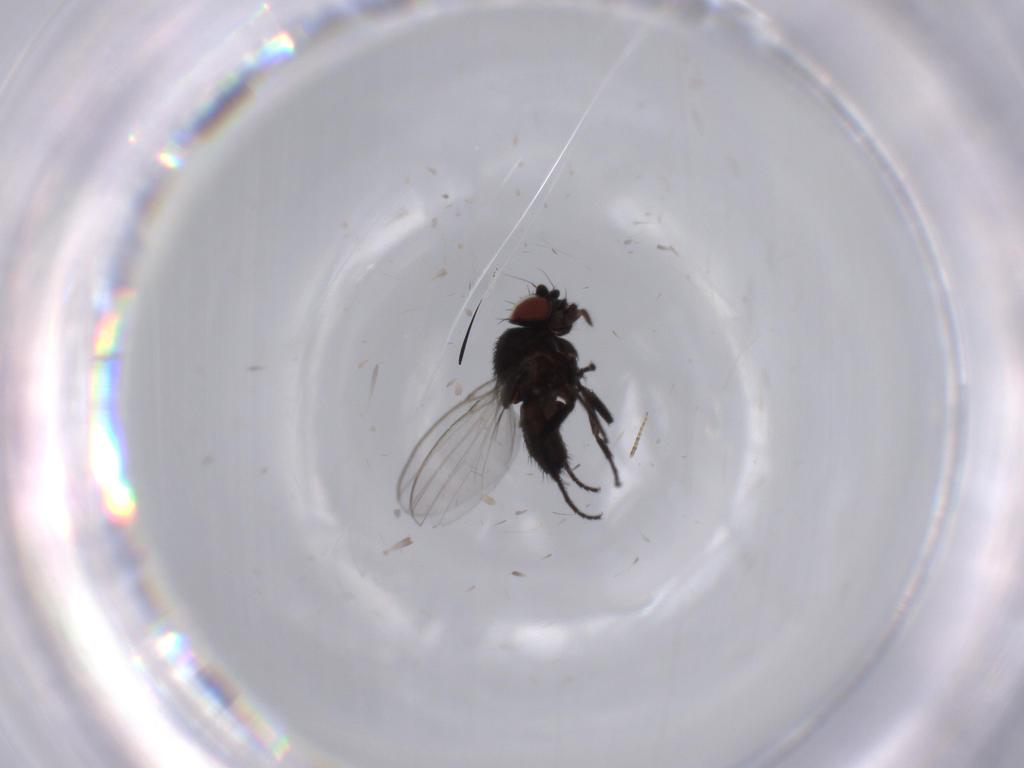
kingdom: Animalia
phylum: Arthropoda
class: Insecta
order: Diptera
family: Milichiidae
